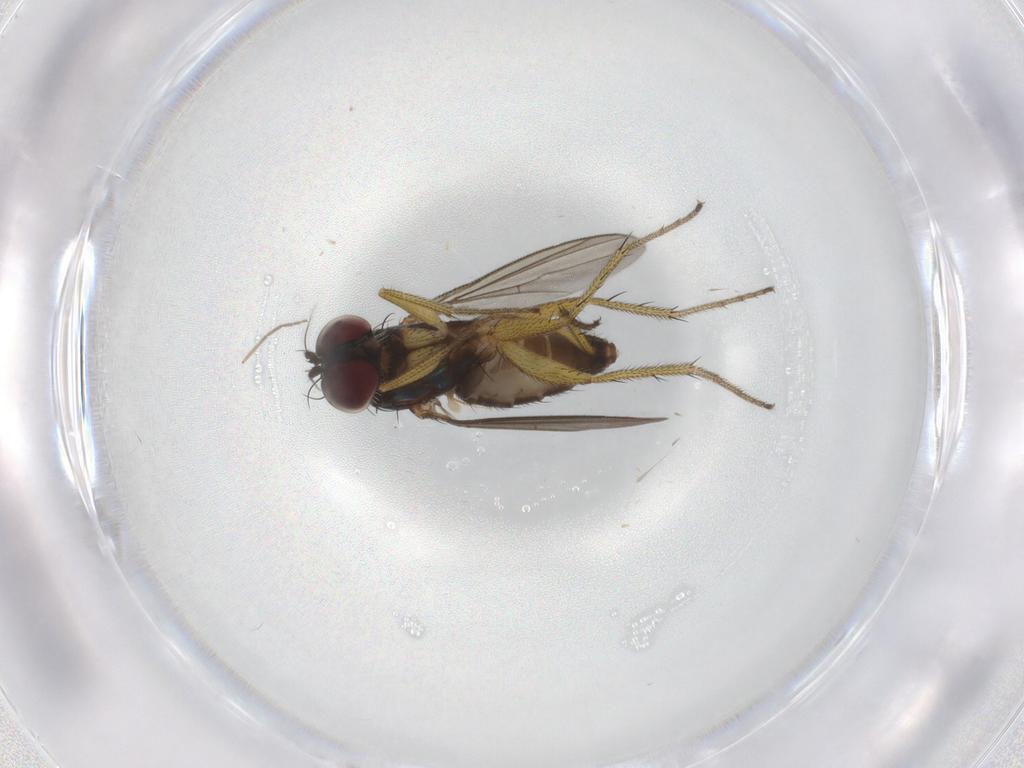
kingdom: Animalia
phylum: Arthropoda
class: Insecta
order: Diptera
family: Dolichopodidae
